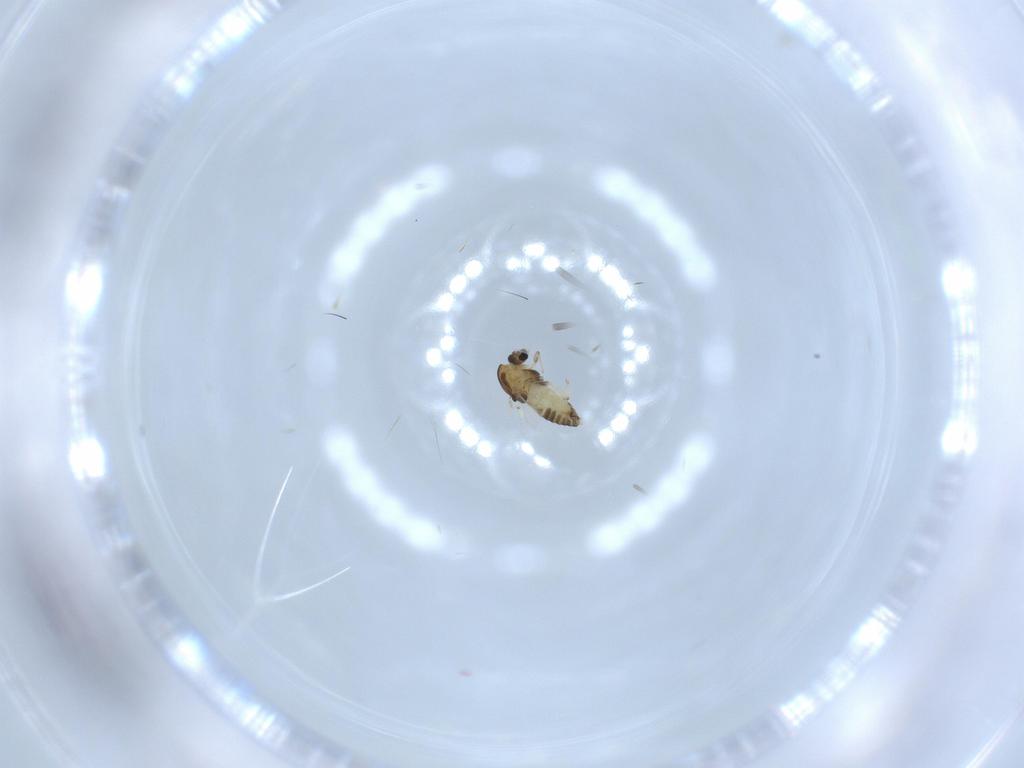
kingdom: Animalia
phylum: Arthropoda
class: Insecta
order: Diptera
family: Chironomidae
